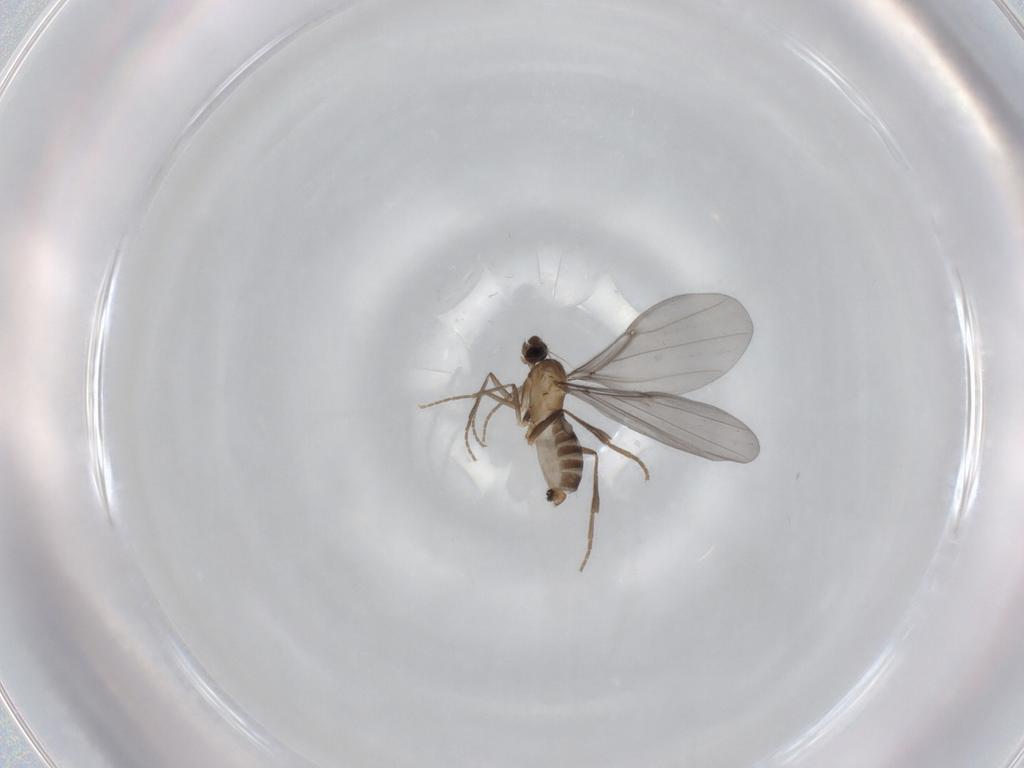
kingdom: Animalia
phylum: Arthropoda
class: Insecta
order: Diptera
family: Phoridae
